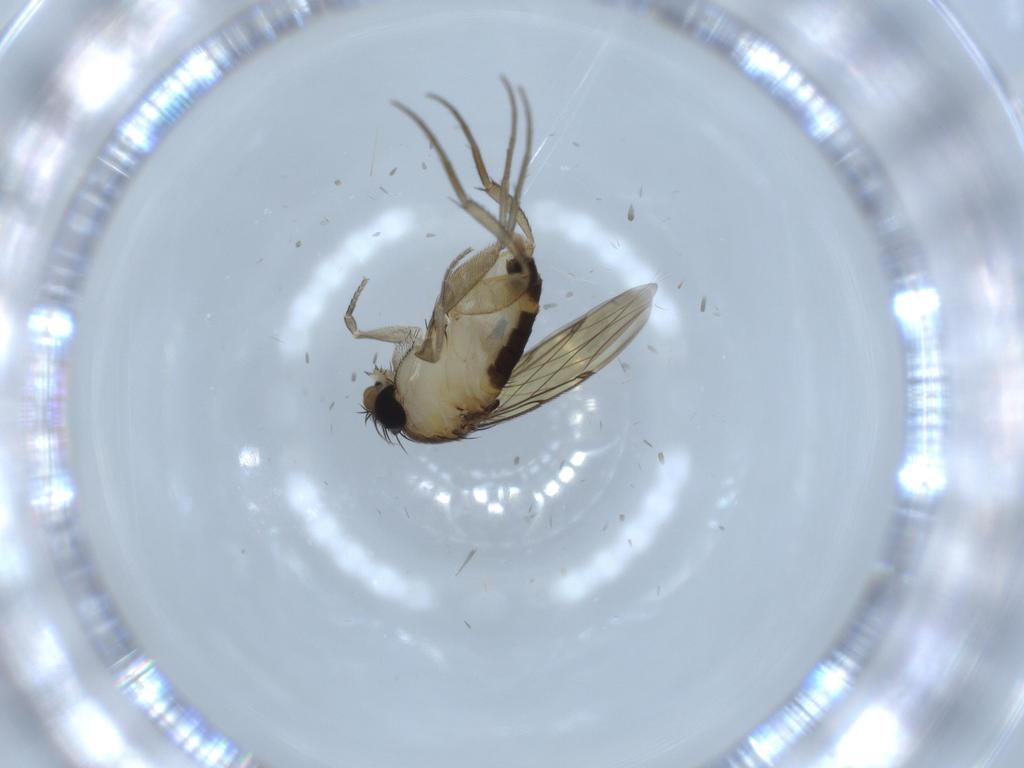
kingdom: Animalia
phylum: Arthropoda
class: Insecta
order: Diptera
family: Phoridae
